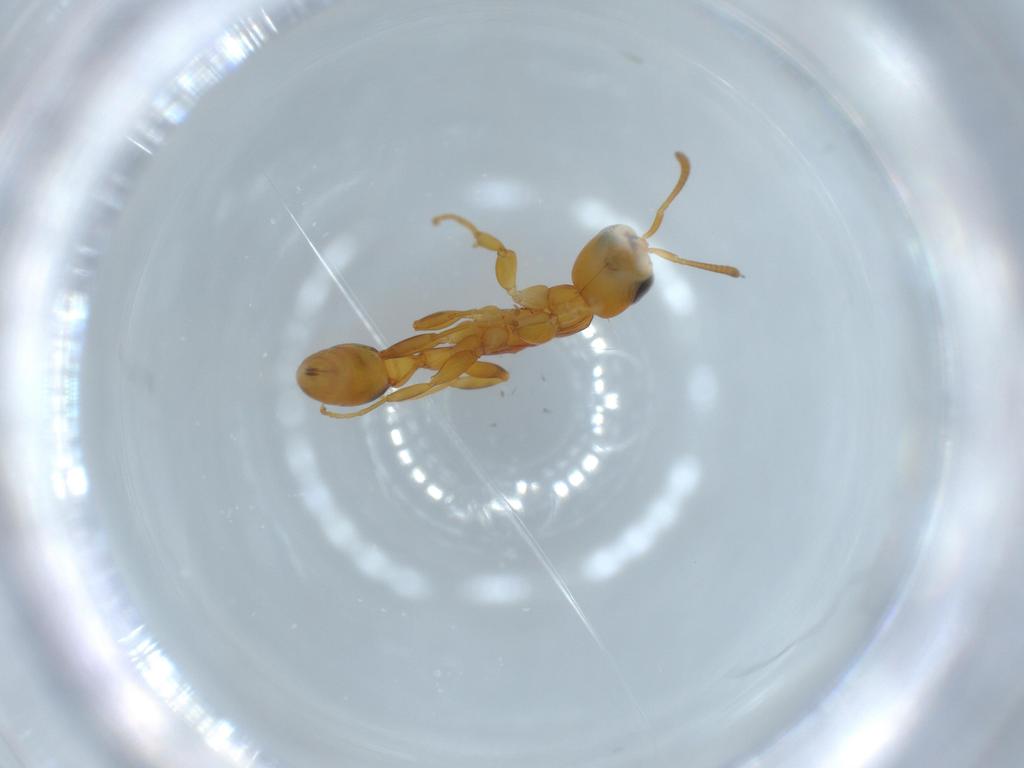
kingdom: Animalia
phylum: Arthropoda
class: Insecta
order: Hymenoptera
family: Formicidae
